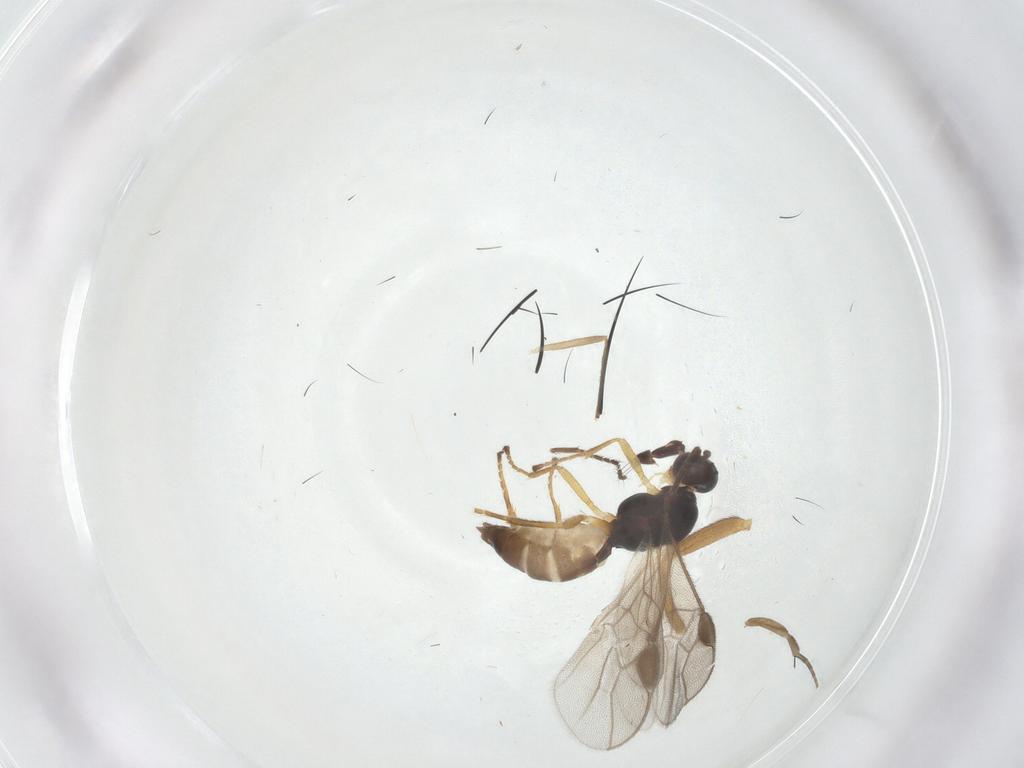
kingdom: Animalia
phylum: Arthropoda
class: Insecta
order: Hymenoptera
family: Braconidae
